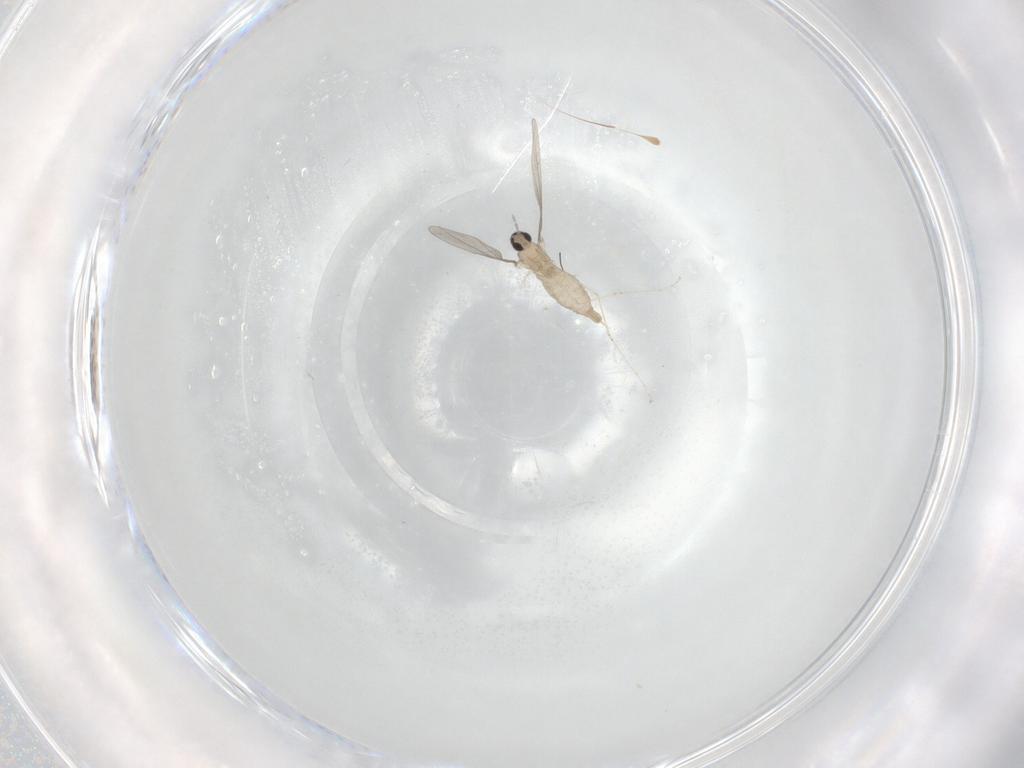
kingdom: Animalia
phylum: Arthropoda
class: Insecta
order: Diptera
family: Cecidomyiidae
